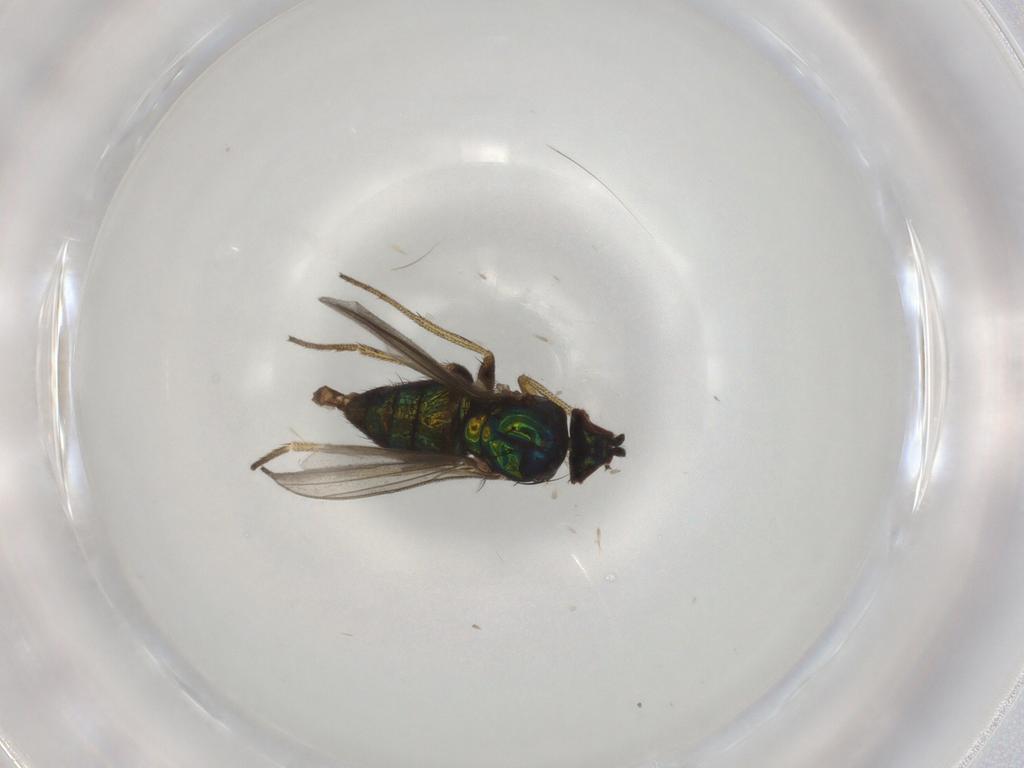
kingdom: Animalia
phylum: Arthropoda
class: Insecta
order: Diptera
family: Dolichopodidae
